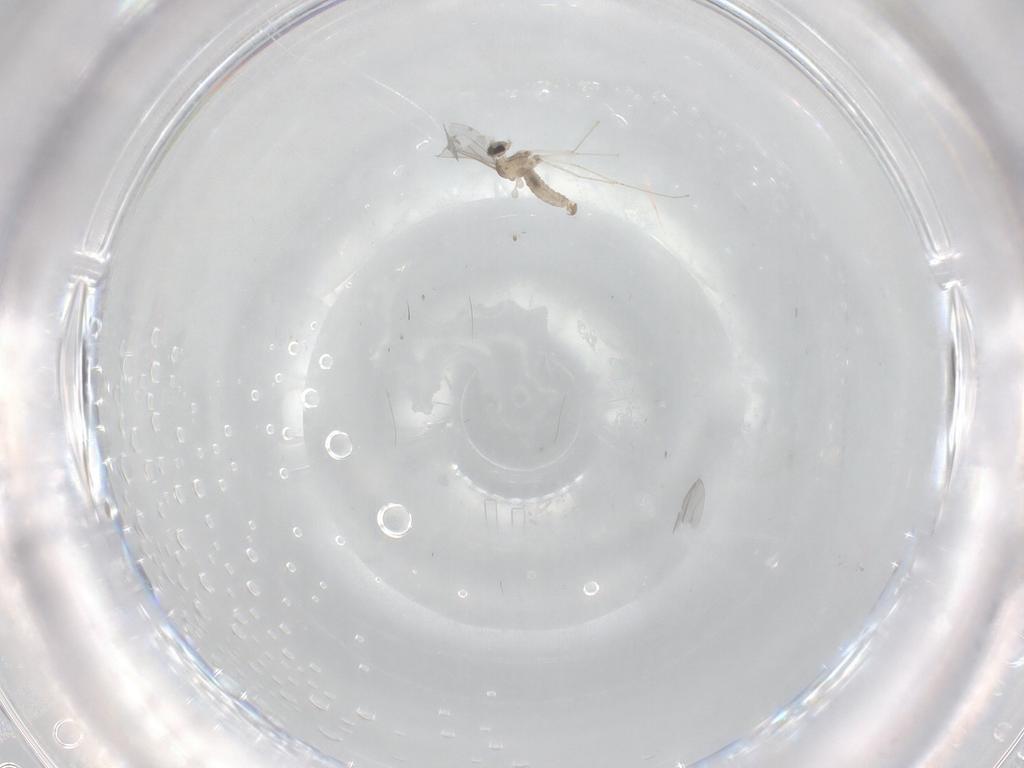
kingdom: Animalia
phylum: Arthropoda
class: Insecta
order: Diptera
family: Cecidomyiidae
